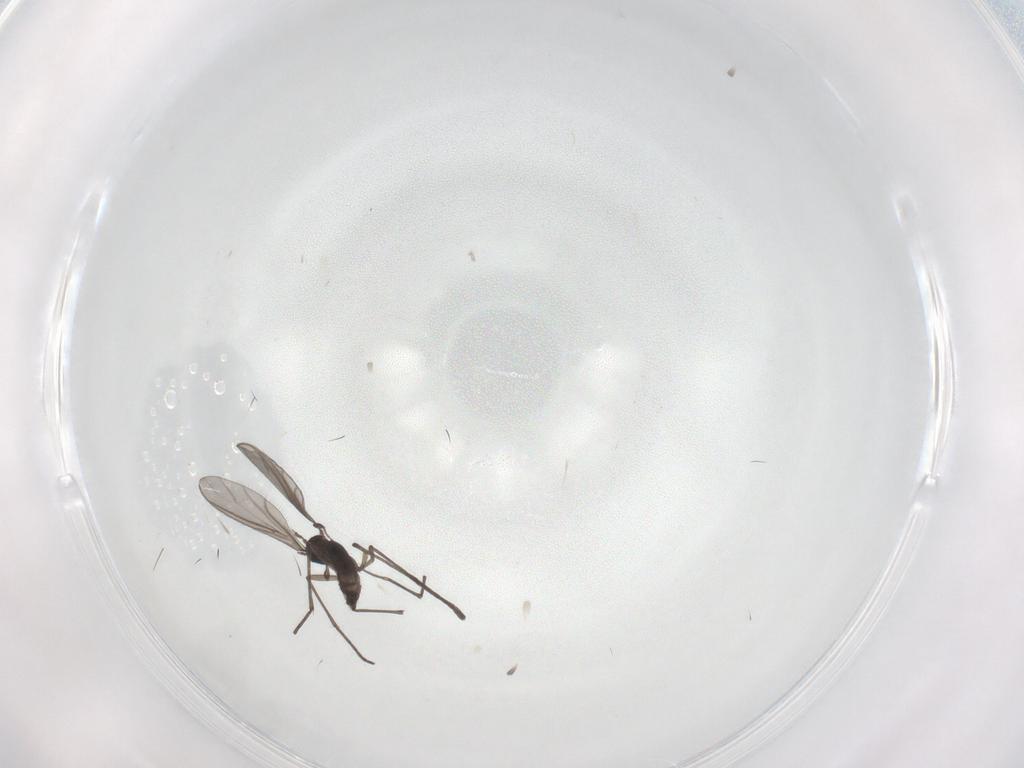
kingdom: Animalia
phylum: Arthropoda
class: Insecta
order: Diptera
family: Sciaridae
